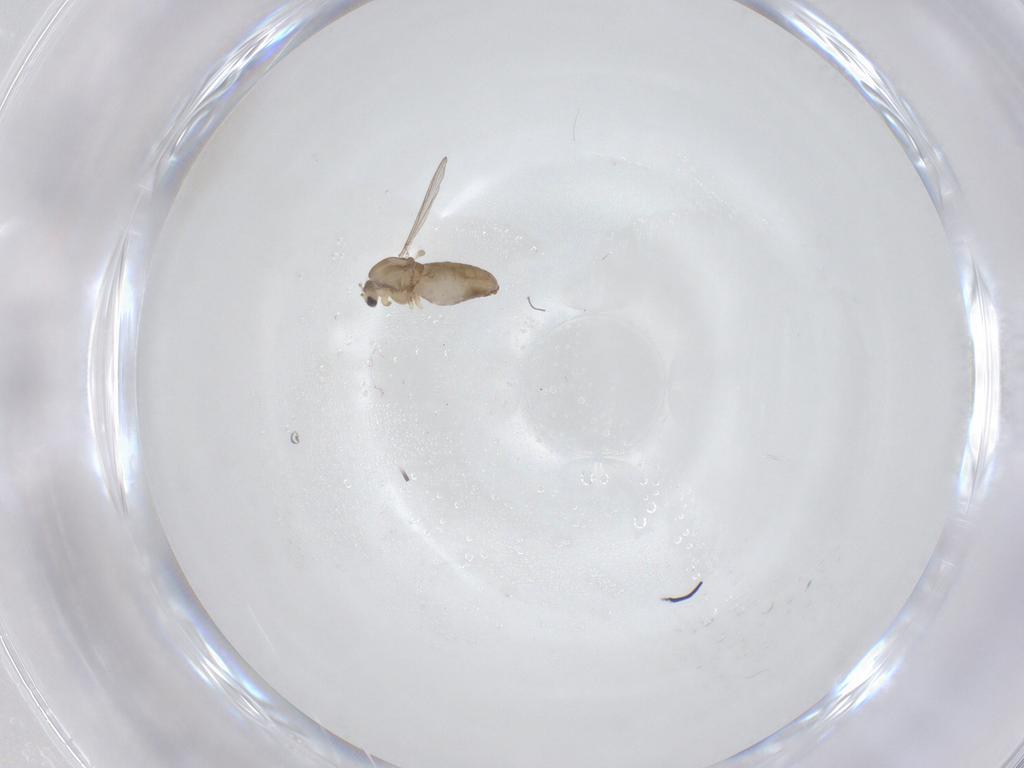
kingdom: Animalia
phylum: Arthropoda
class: Insecta
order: Diptera
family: Chironomidae
